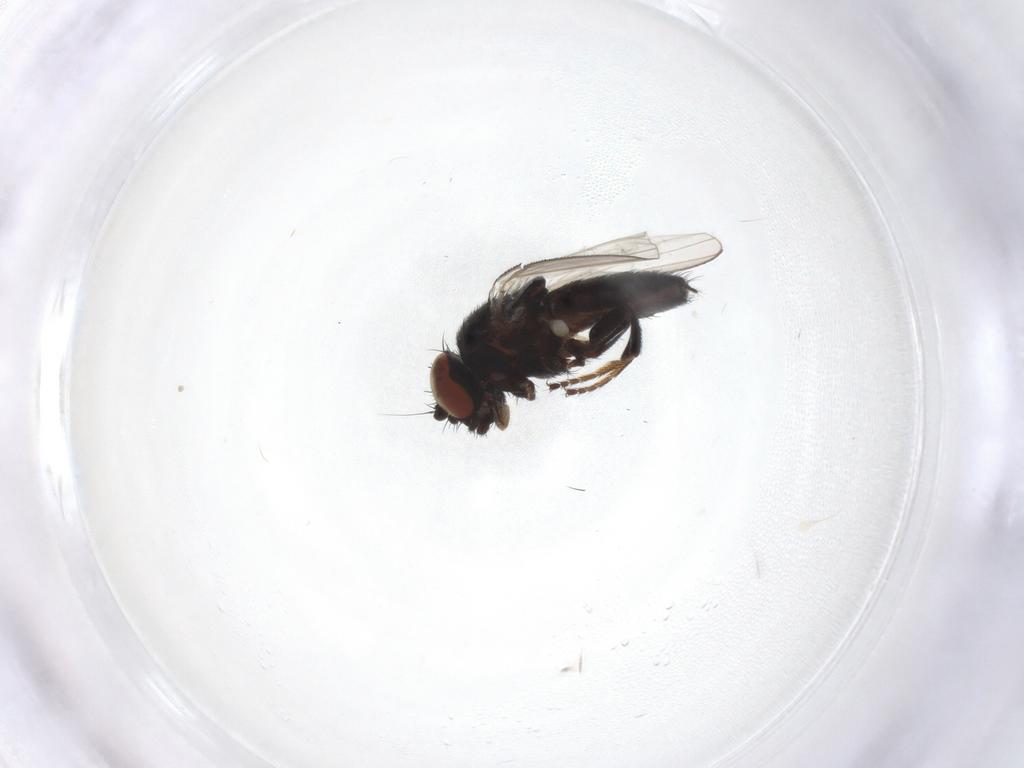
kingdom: Animalia
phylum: Arthropoda
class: Insecta
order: Diptera
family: Milichiidae
